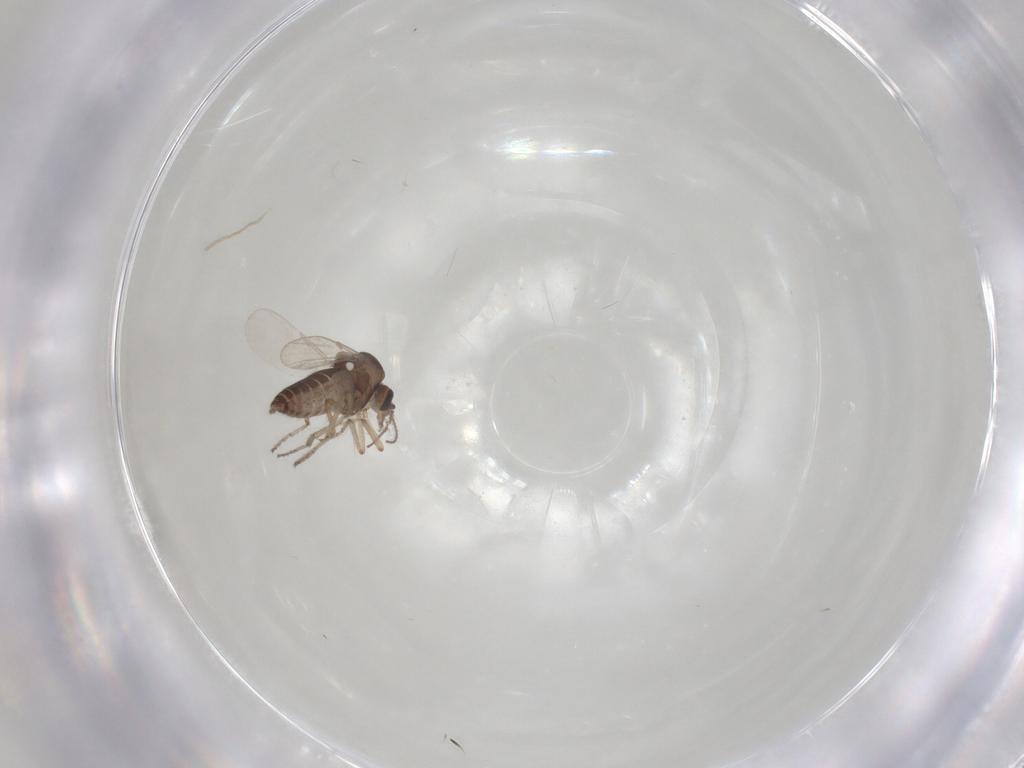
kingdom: Animalia
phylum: Arthropoda
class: Insecta
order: Diptera
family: Ceratopogonidae
